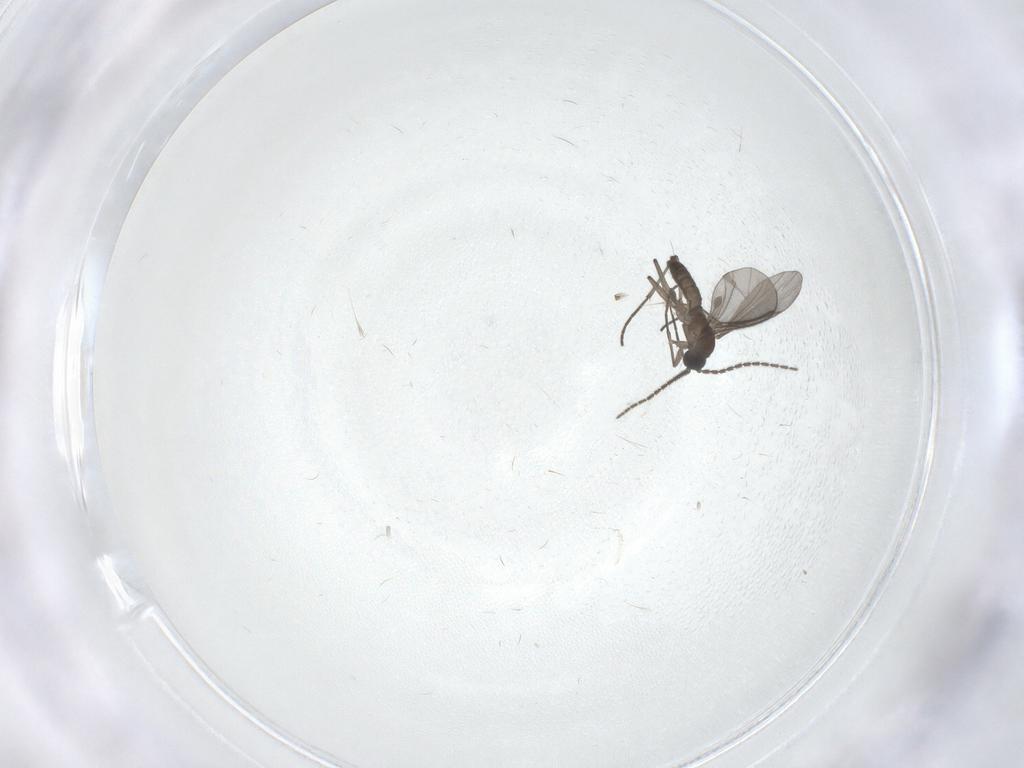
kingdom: Animalia
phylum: Arthropoda
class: Insecta
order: Diptera
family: Sciaridae
